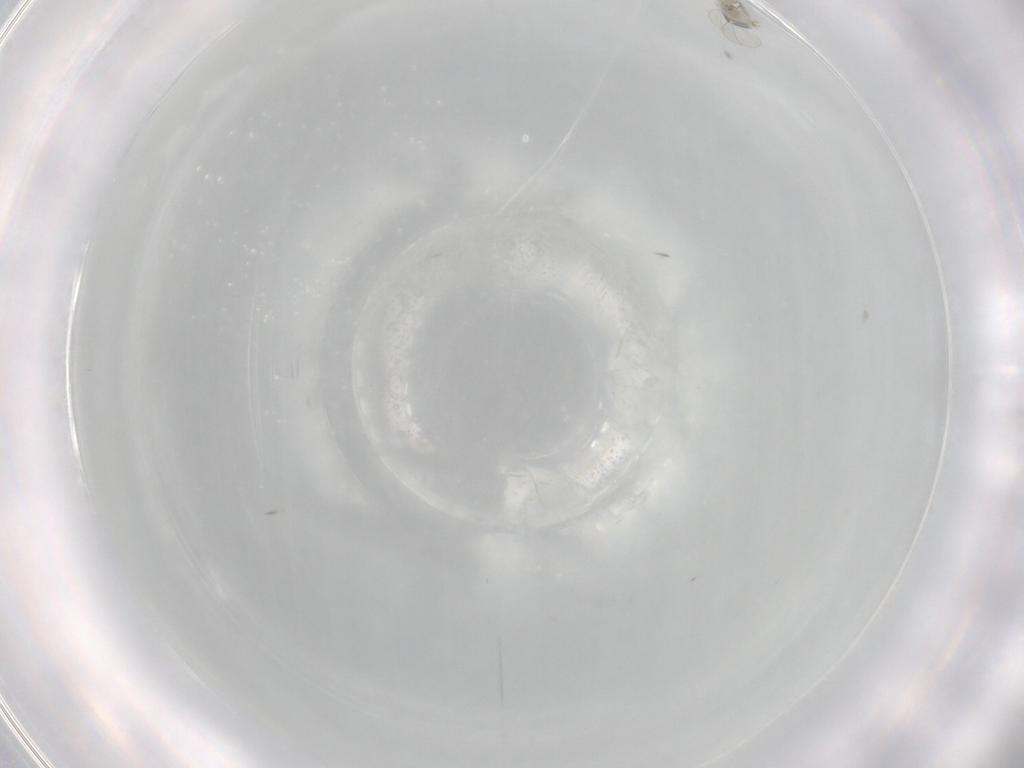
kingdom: Animalia
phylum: Arthropoda
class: Insecta
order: Diptera
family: Cecidomyiidae
